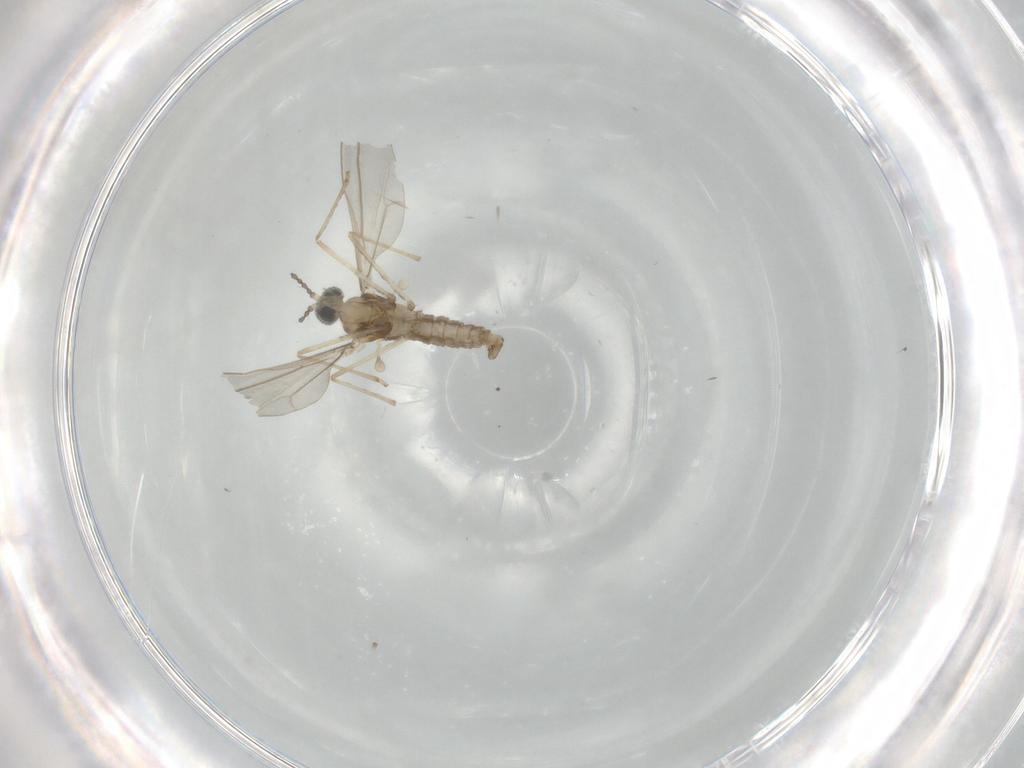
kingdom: Animalia
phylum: Arthropoda
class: Insecta
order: Diptera
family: Cecidomyiidae
